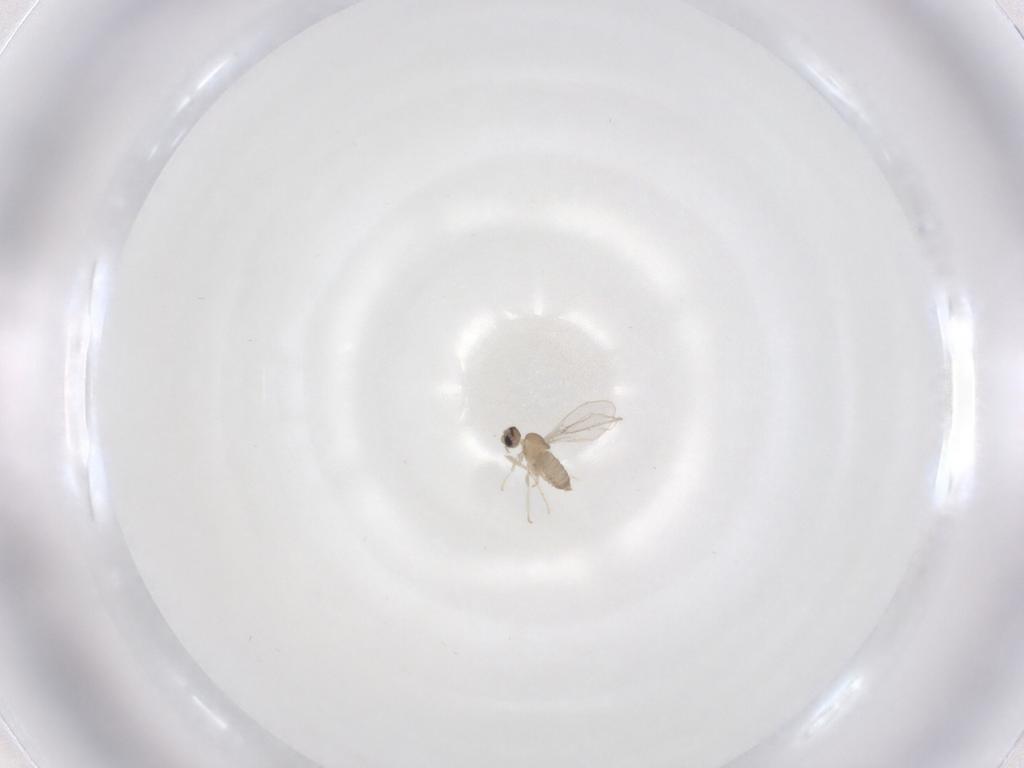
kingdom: Animalia
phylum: Arthropoda
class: Insecta
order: Diptera
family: Cecidomyiidae
